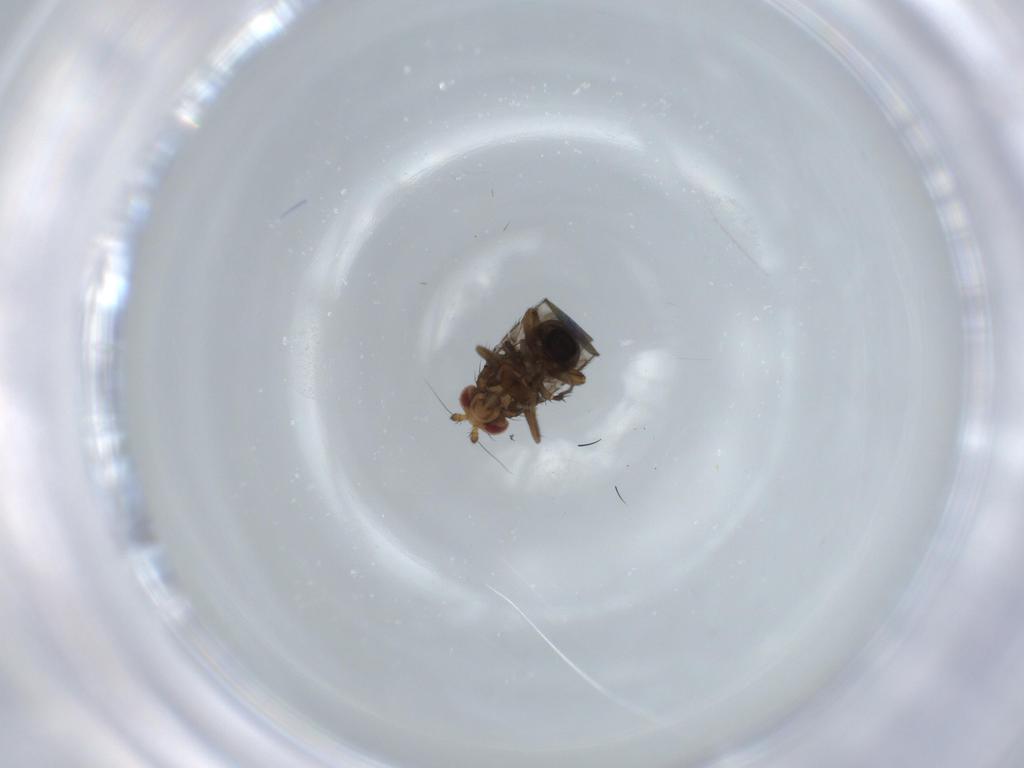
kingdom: Animalia
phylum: Arthropoda
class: Insecta
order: Diptera
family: Sphaeroceridae
